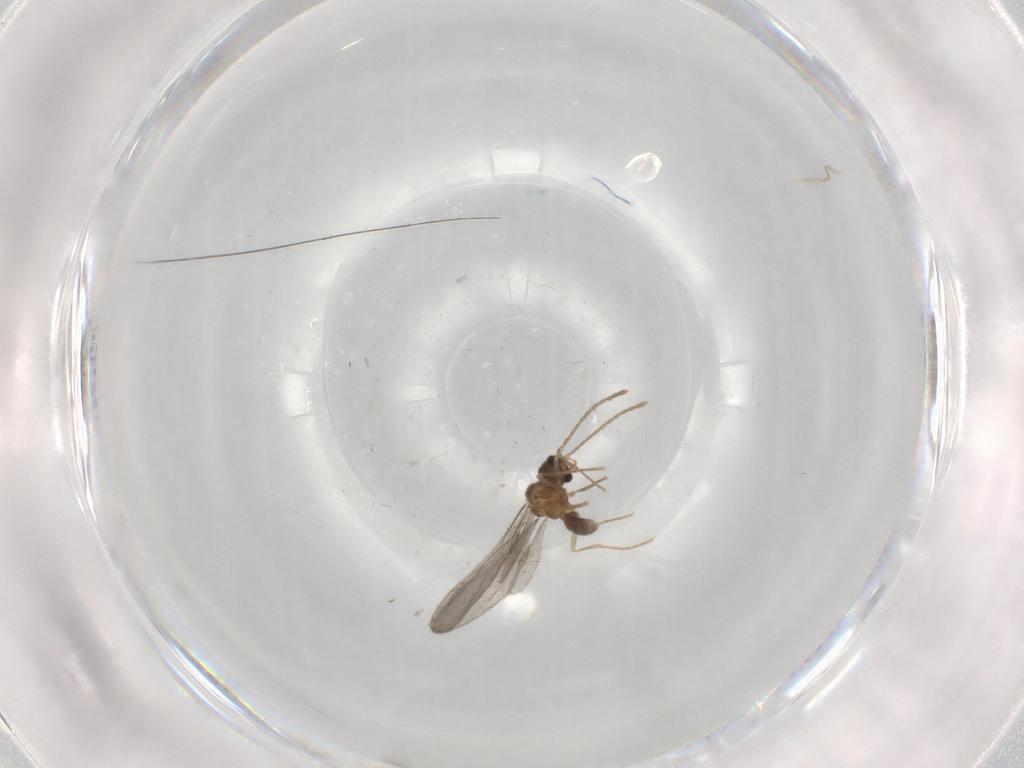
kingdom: Animalia
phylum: Arthropoda
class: Insecta
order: Hymenoptera
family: Formicidae
